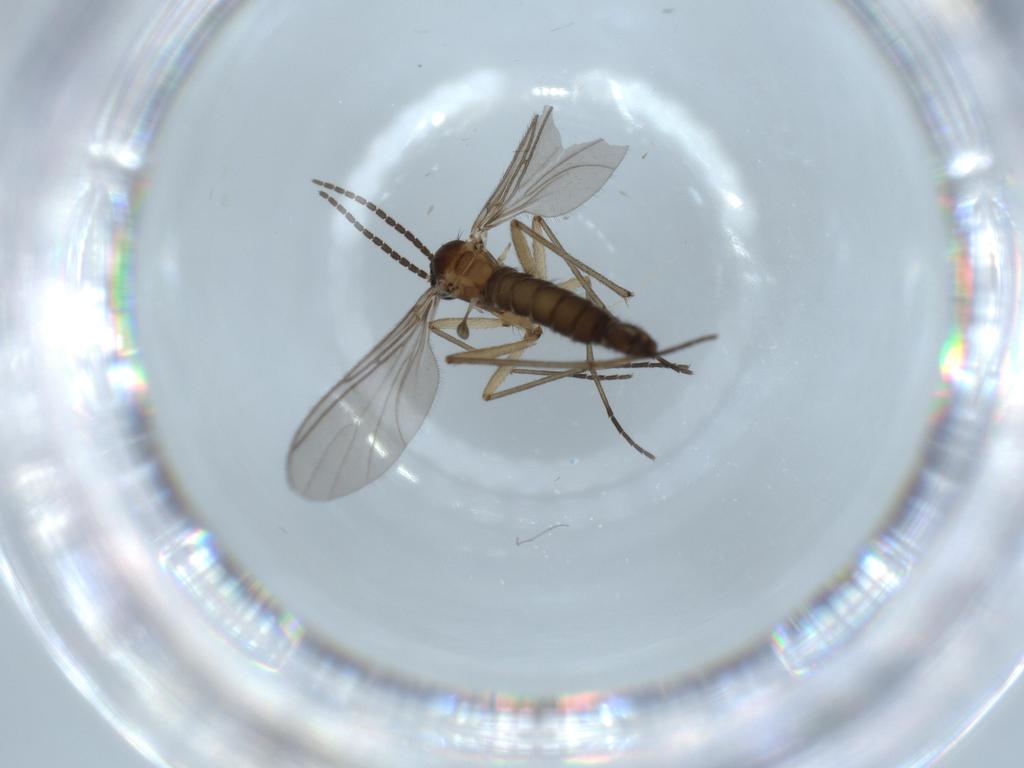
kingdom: Animalia
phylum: Arthropoda
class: Insecta
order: Diptera
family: Sciaridae
